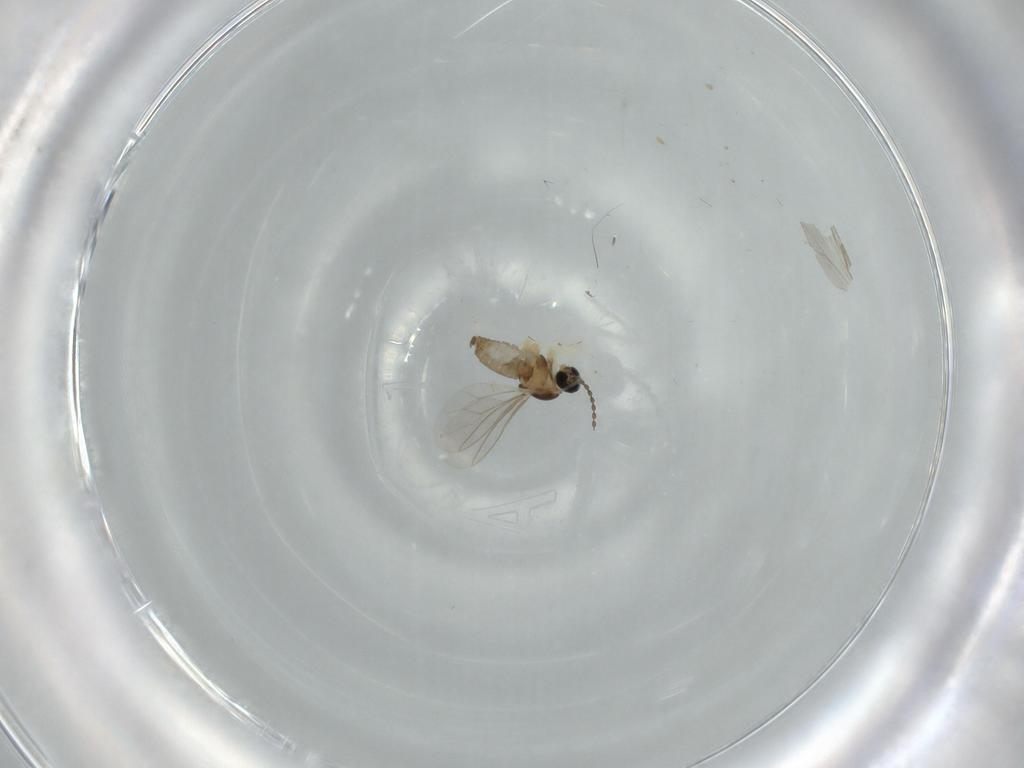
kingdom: Animalia
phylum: Arthropoda
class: Insecta
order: Diptera
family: Cecidomyiidae
